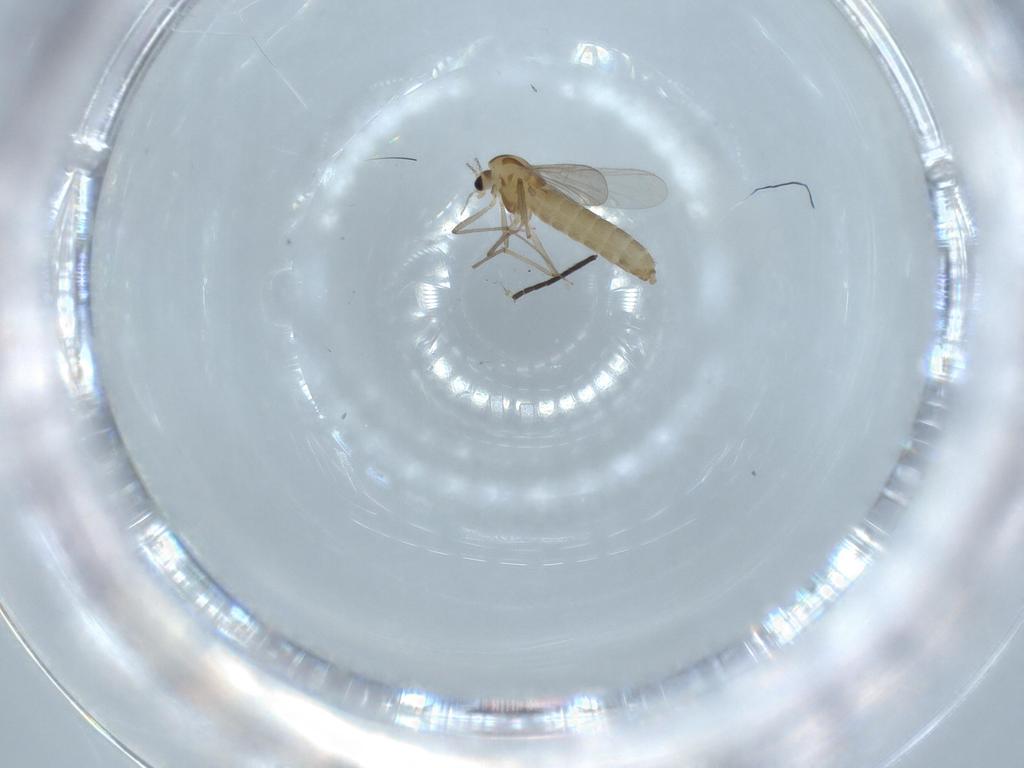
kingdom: Animalia
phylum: Arthropoda
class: Insecta
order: Diptera
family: Chironomidae
